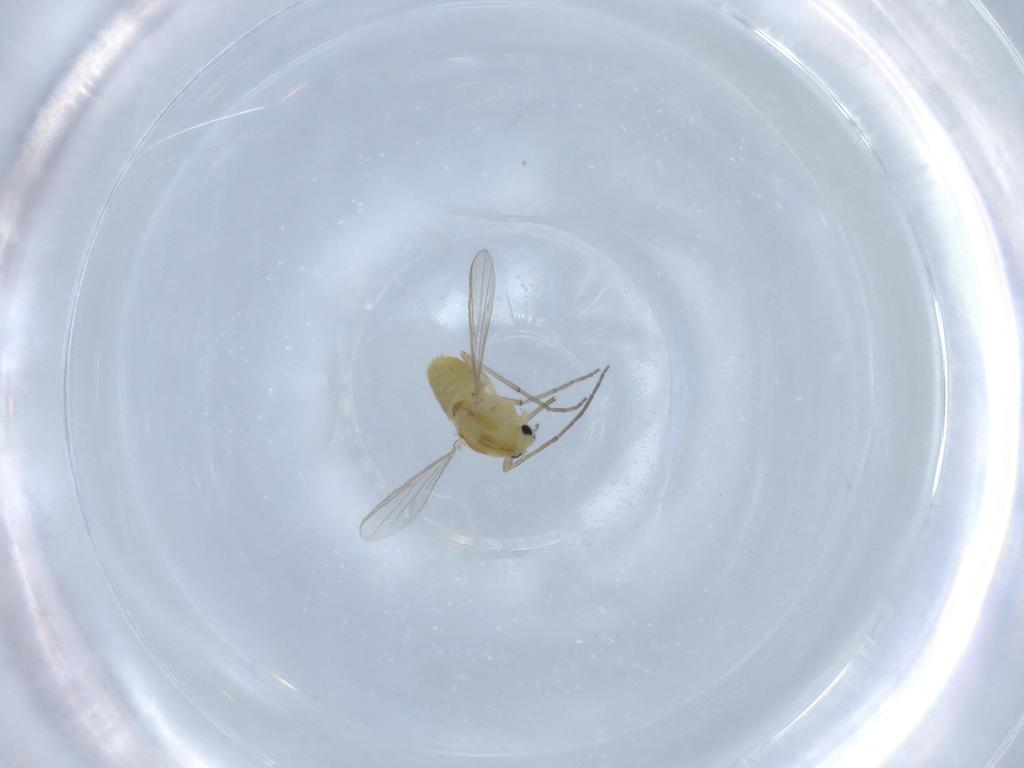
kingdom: Animalia
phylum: Arthropoda
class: Insecta
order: Diptera
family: Chironomidae
